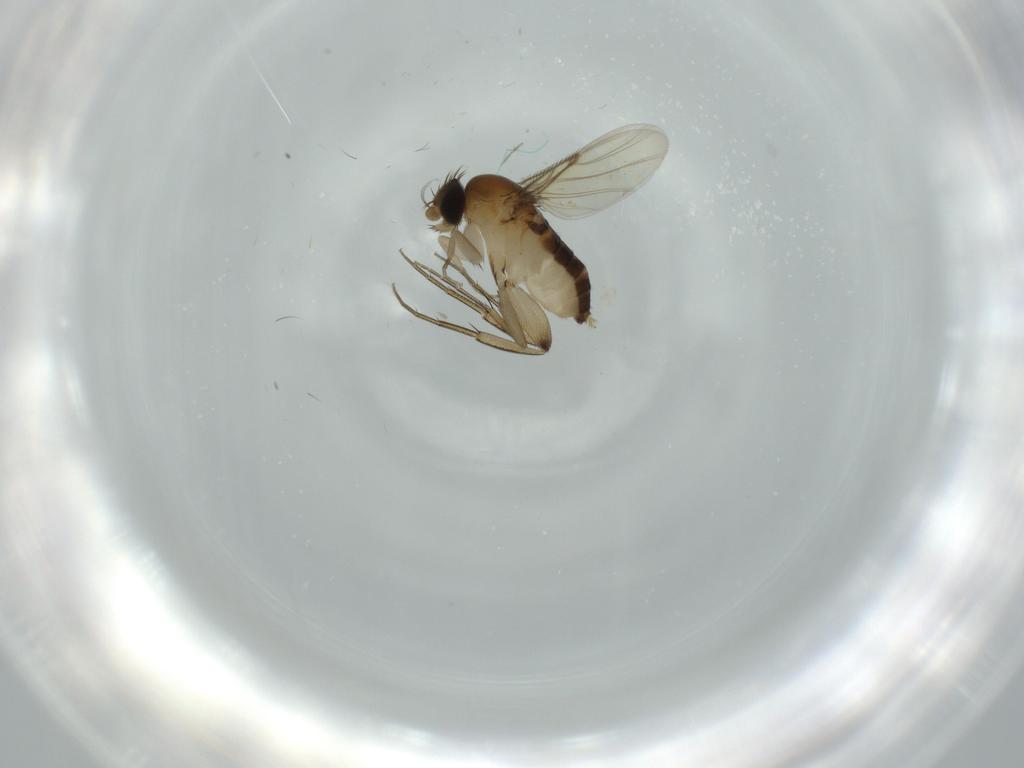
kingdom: Animalia
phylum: Arthropoda
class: Insecta
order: Diptera
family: Phoridae
